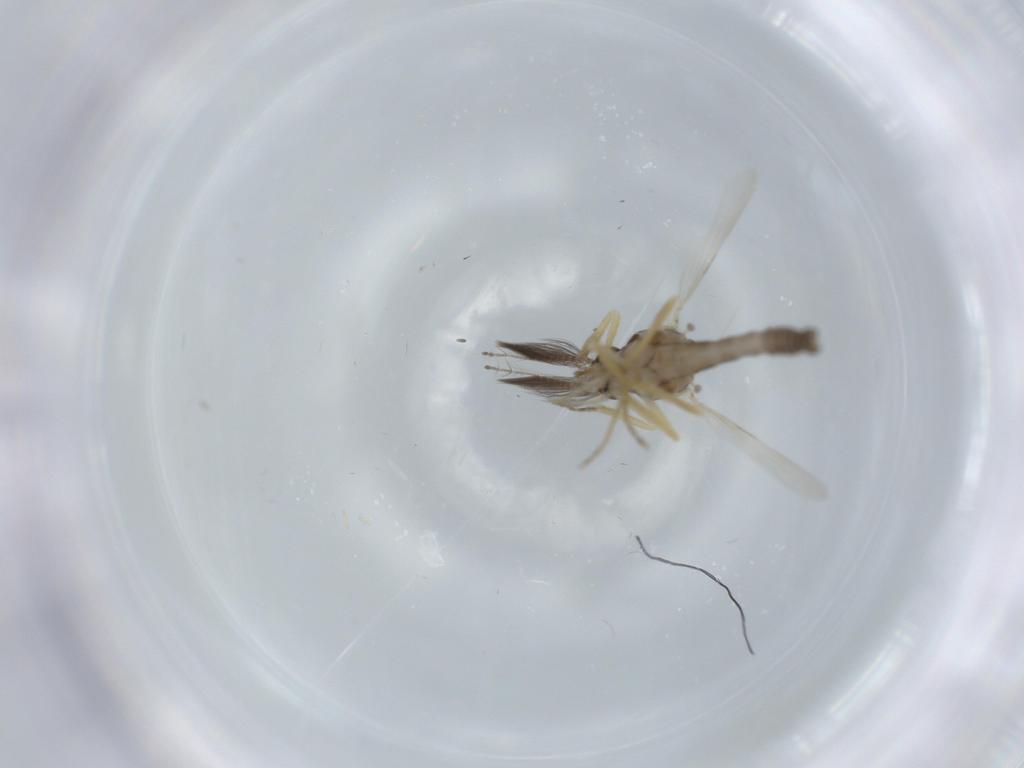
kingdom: Animalia
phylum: Arthropoda
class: Insecta
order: Diptera
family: Ceratopogonidae
